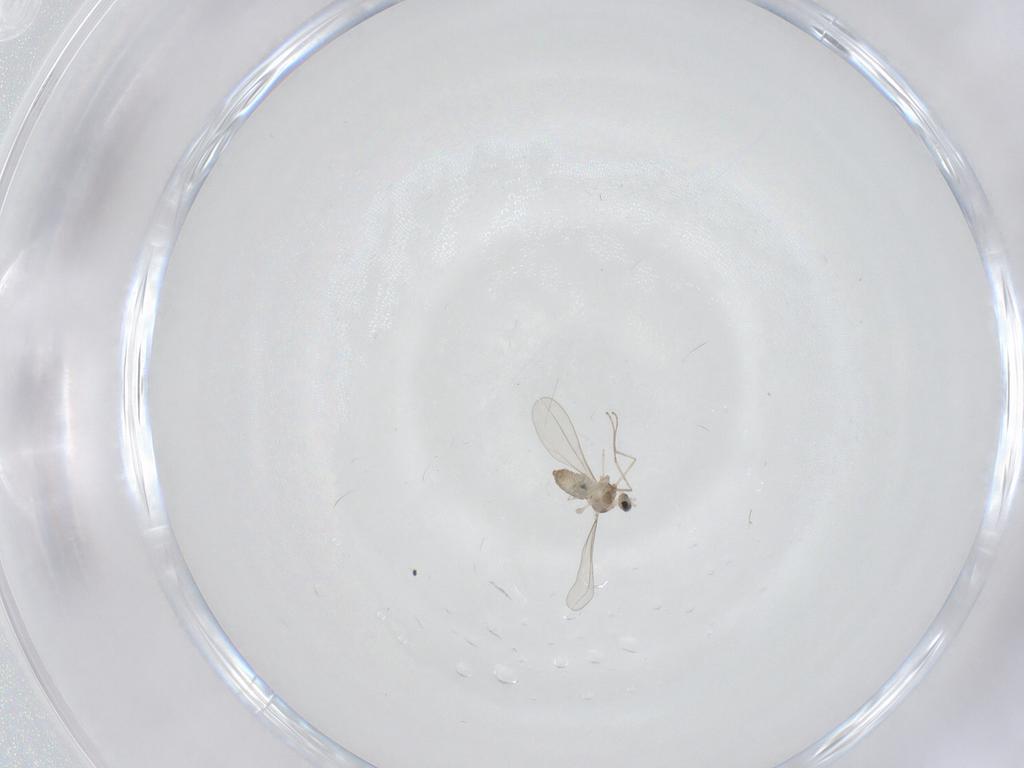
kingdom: Animalia
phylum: Arthropoda
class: Insecta
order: Diptera
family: Cecidomyiidae
